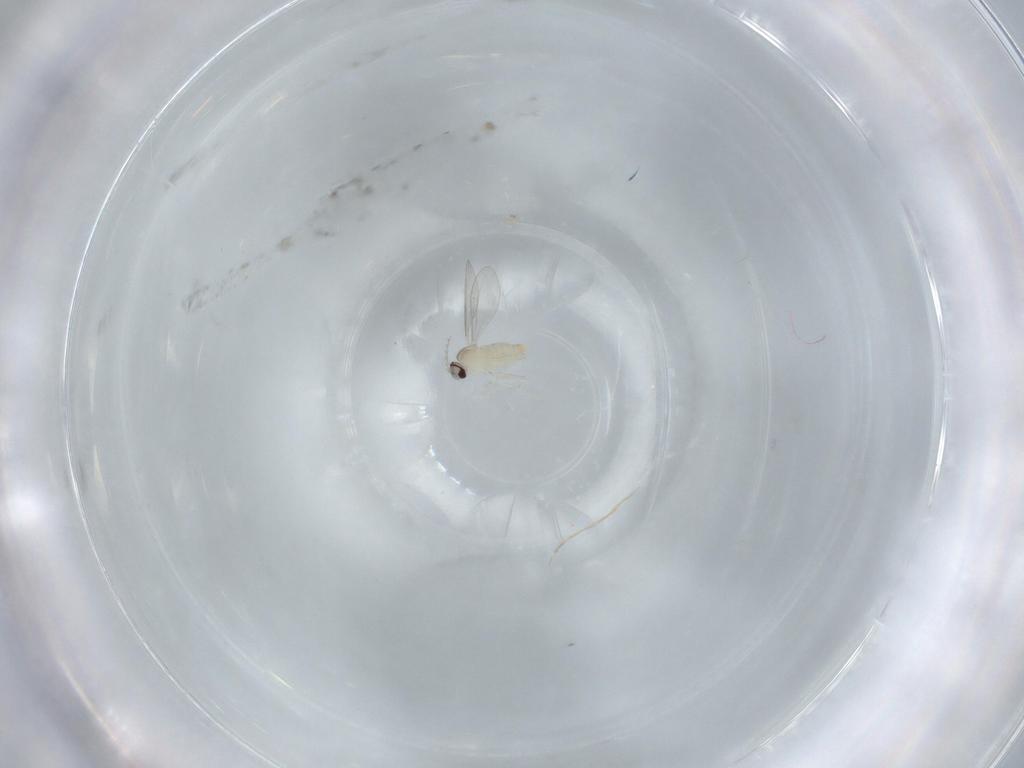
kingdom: Animalia
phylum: Arthropoda
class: Insecta
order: Diptera
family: Cecidomyiidae
